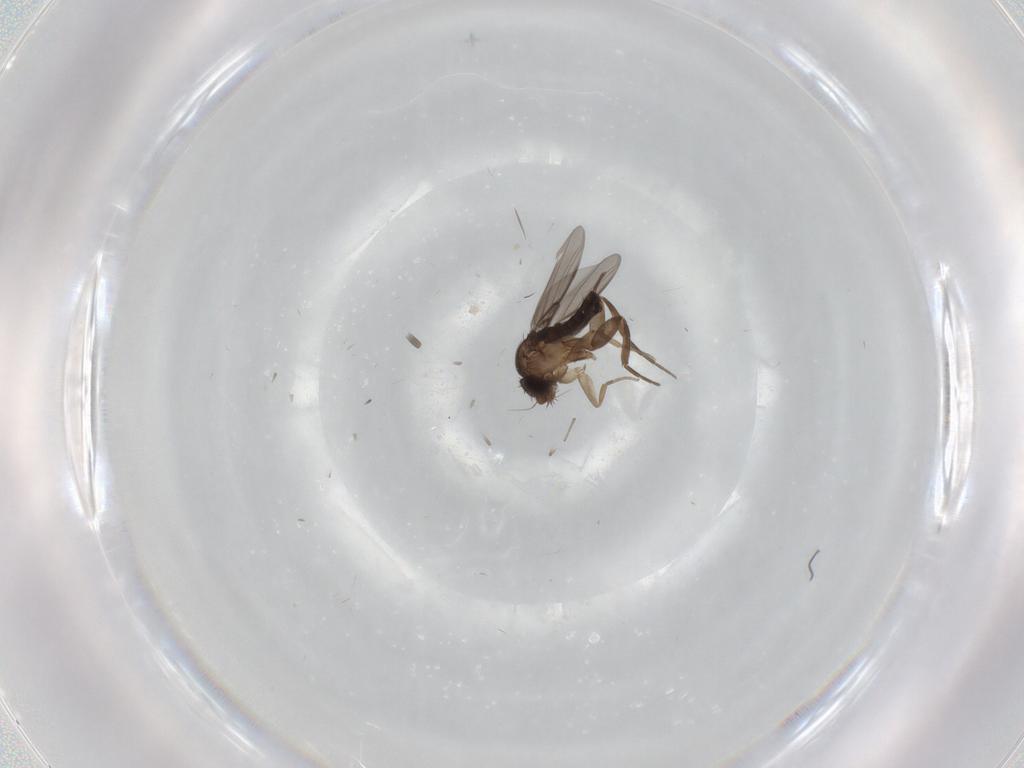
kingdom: Animalia
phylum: Arthropoda
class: Insecta
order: Diptera
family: Phoridae
